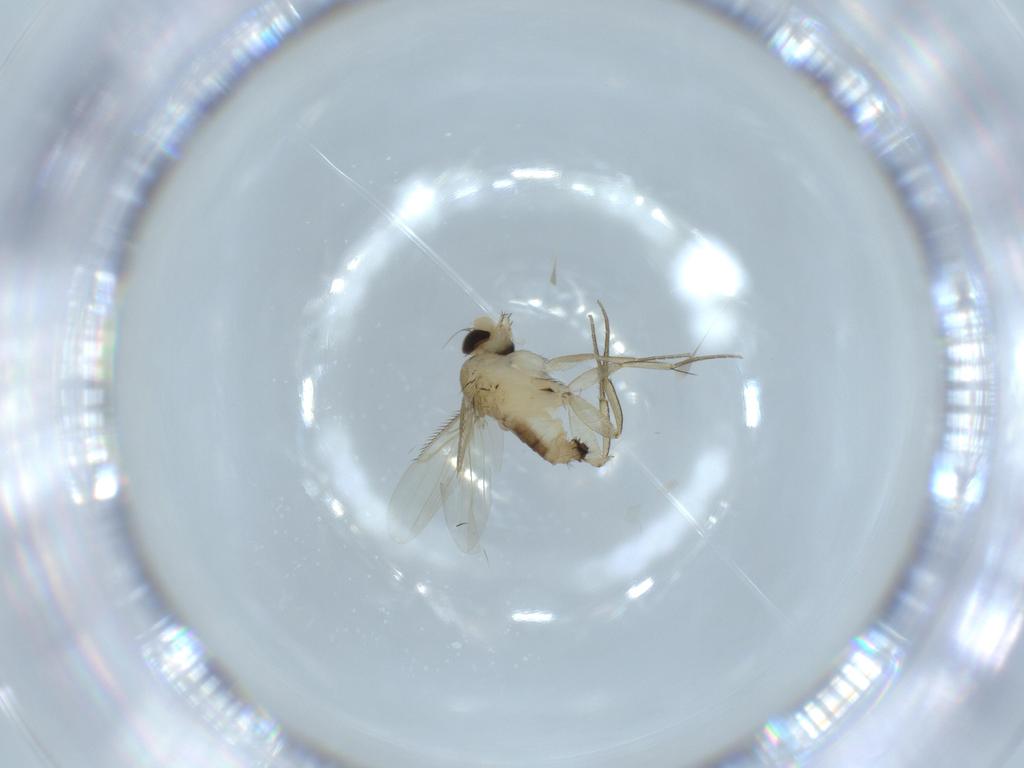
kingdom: Animalia
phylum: Arthropoda
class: Insecta
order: Diptera
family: Phoridae
